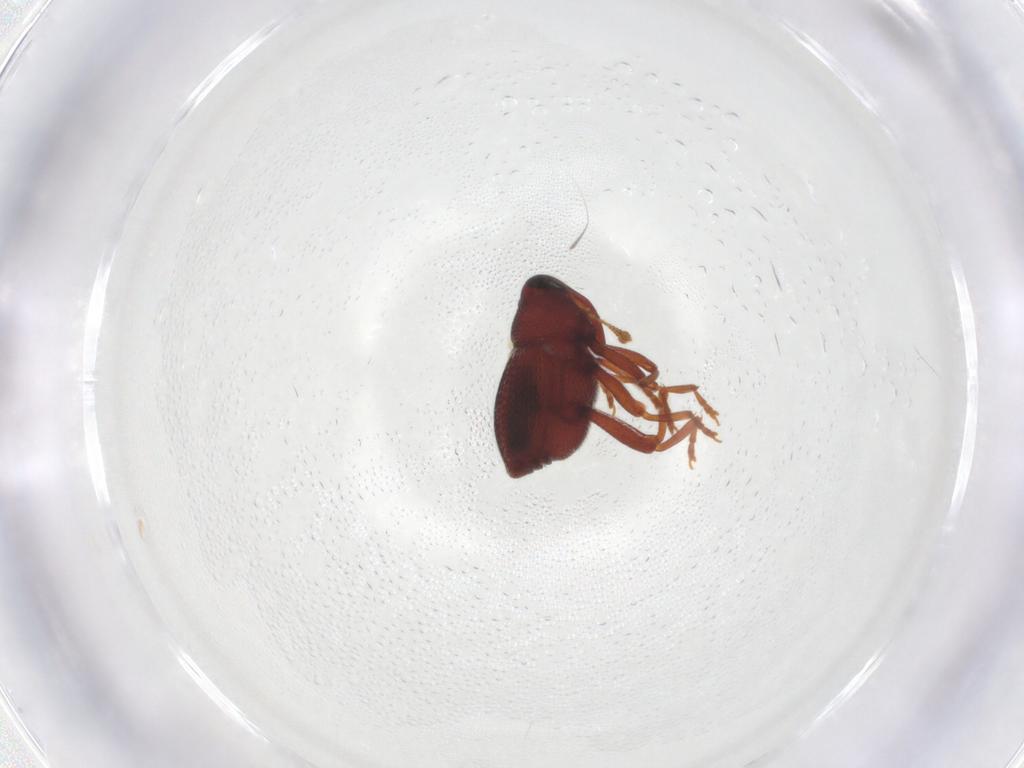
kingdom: Animalia
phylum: Arthropoda
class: Insecta
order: Coleoptera
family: Curculionidae
